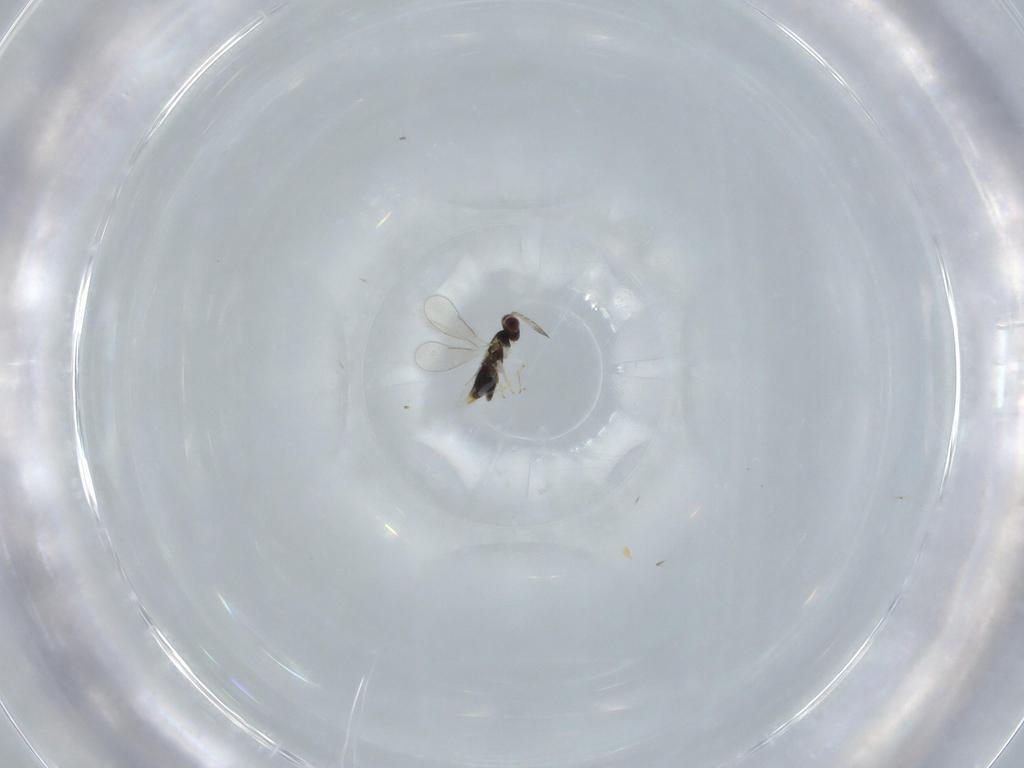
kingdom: Animalia
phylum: Arthropoda
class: Insecta
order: Hymenoptera
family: Aphelinidae
